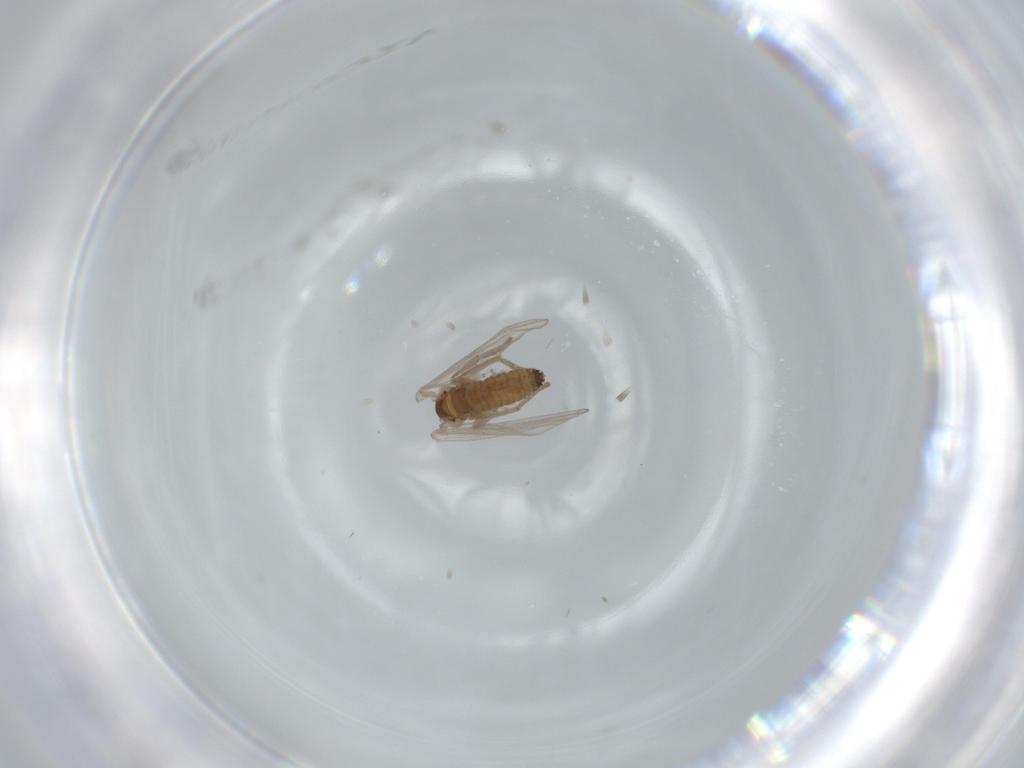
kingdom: Animalia
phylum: Arthropoda
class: Insecta
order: Diptera
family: Psychodidae
